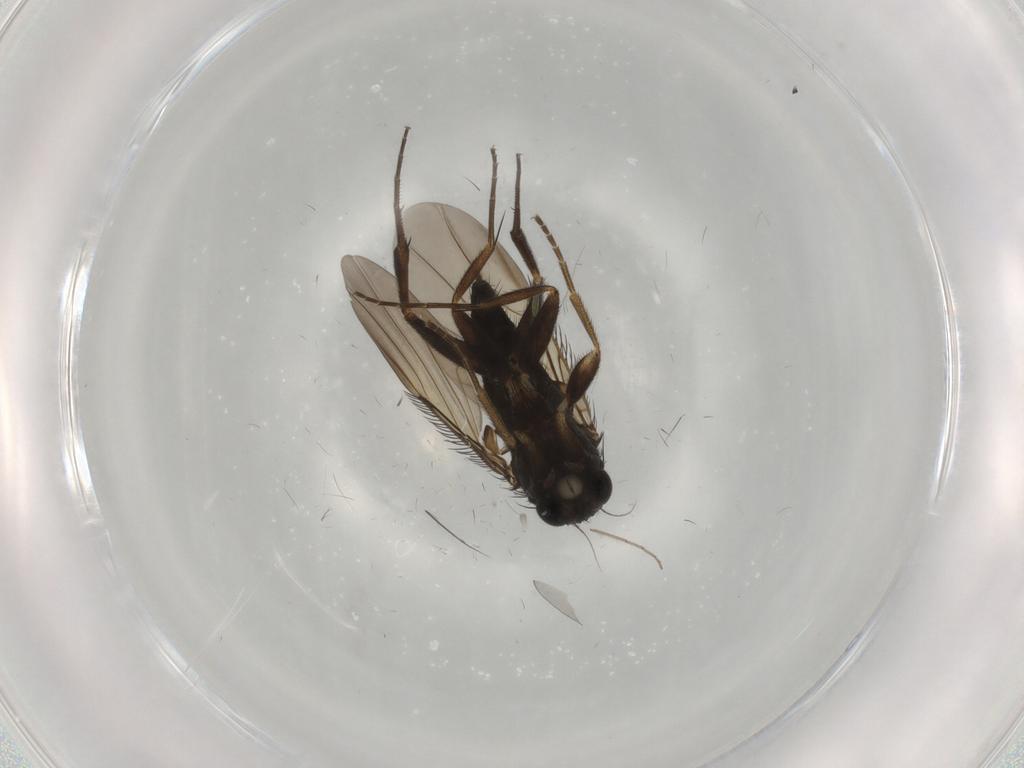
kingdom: Animalia
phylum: Arthropoda
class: Insecta
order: Diptera
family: Phoridae
